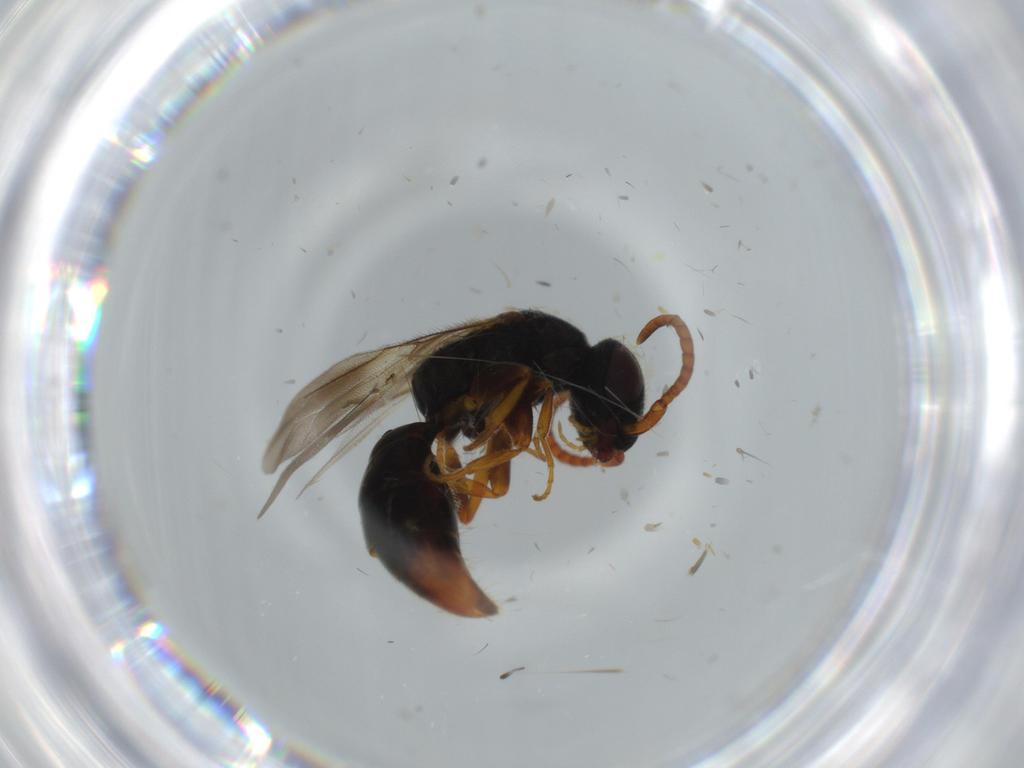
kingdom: Animalia
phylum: Arthropoda
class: Insecta
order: Hymenoptera
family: Bethylidae
